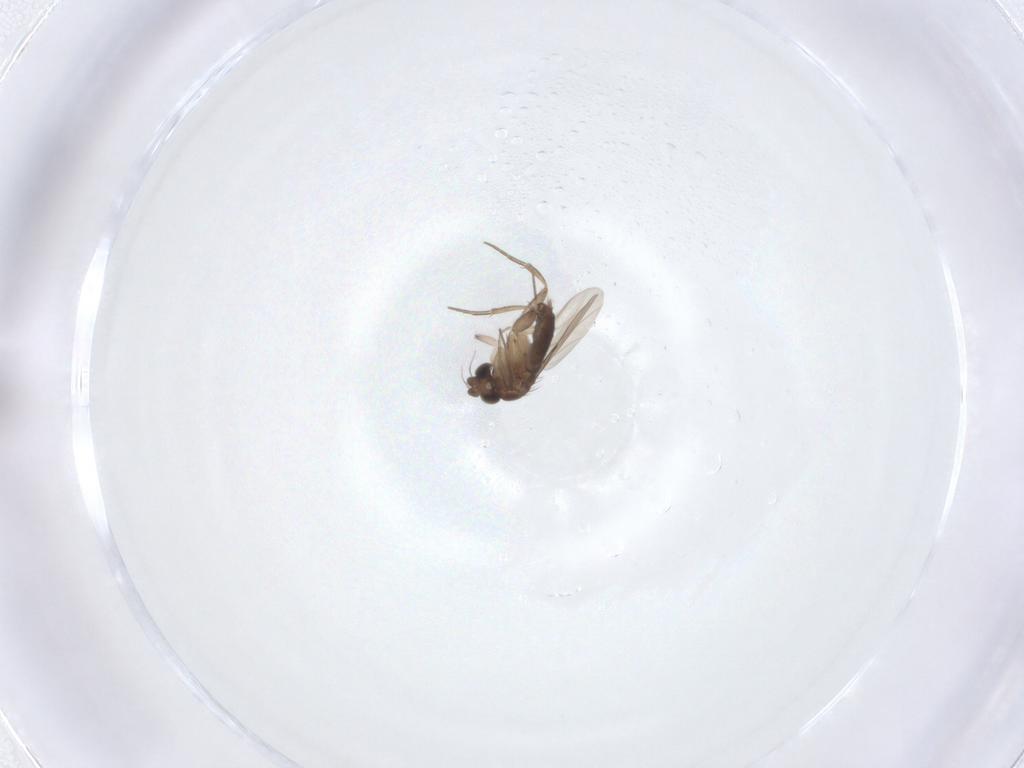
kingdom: Animalia
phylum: Arthropoda
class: Insecta
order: Diptera
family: Phoridae
